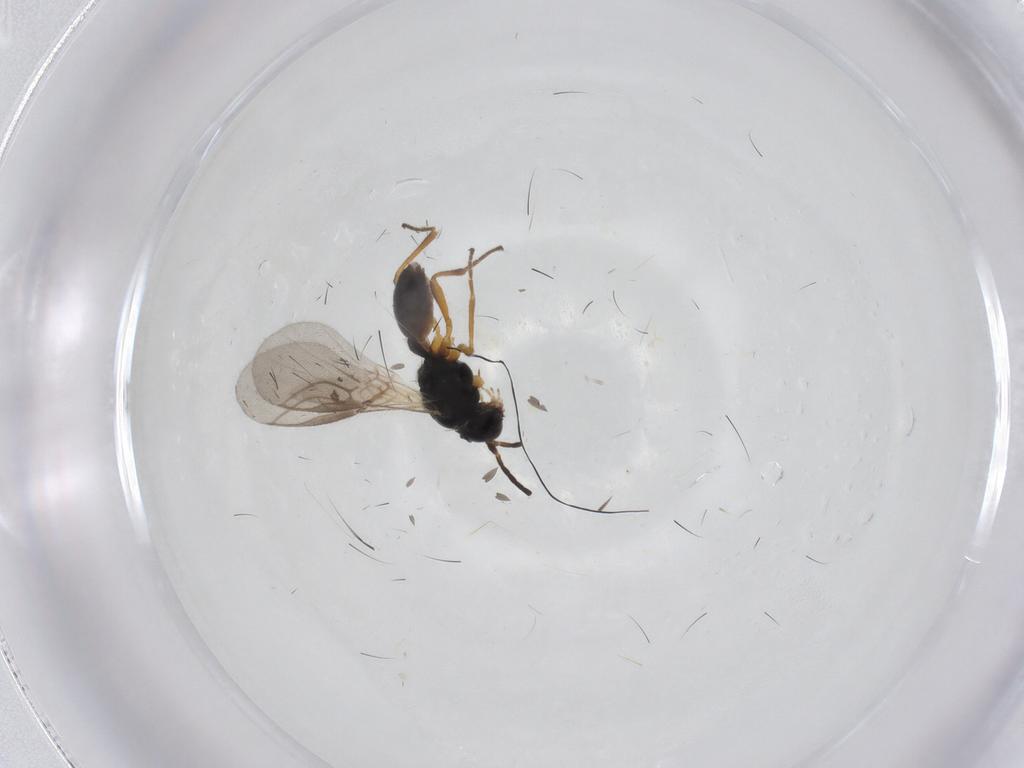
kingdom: Animalia
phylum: Arthropoda
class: Insecta
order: Hymenoptera
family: Braconidae
